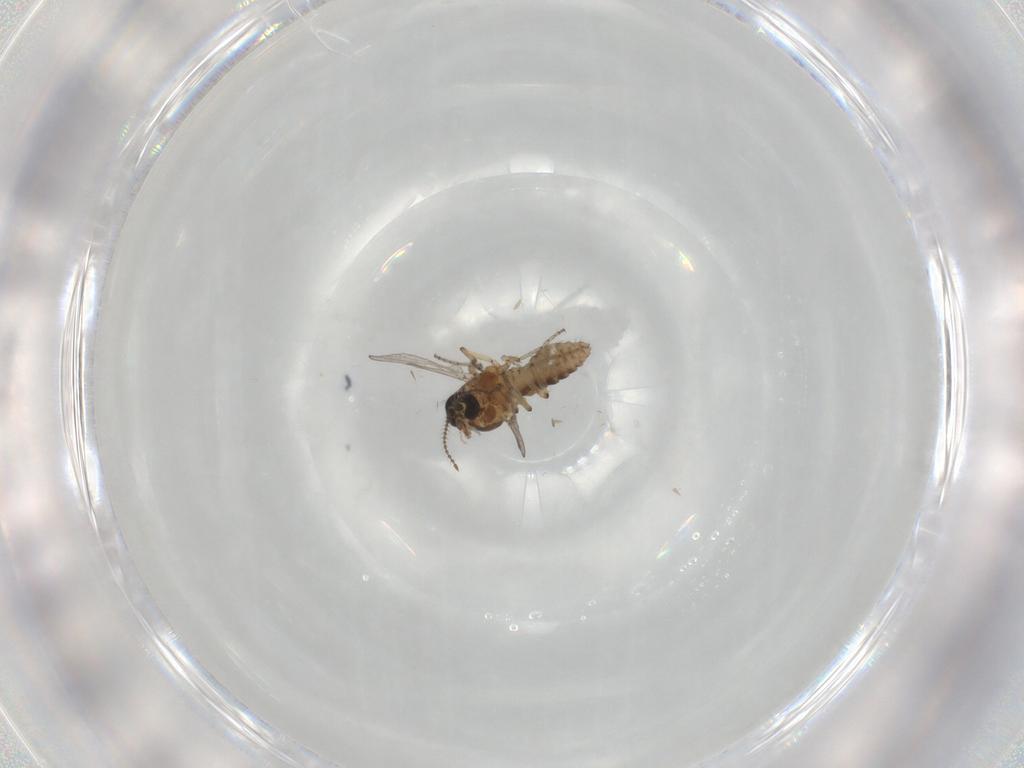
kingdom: Animalia
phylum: Arthropoda
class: Insecta
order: Diptera
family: Ceratopogonidae
